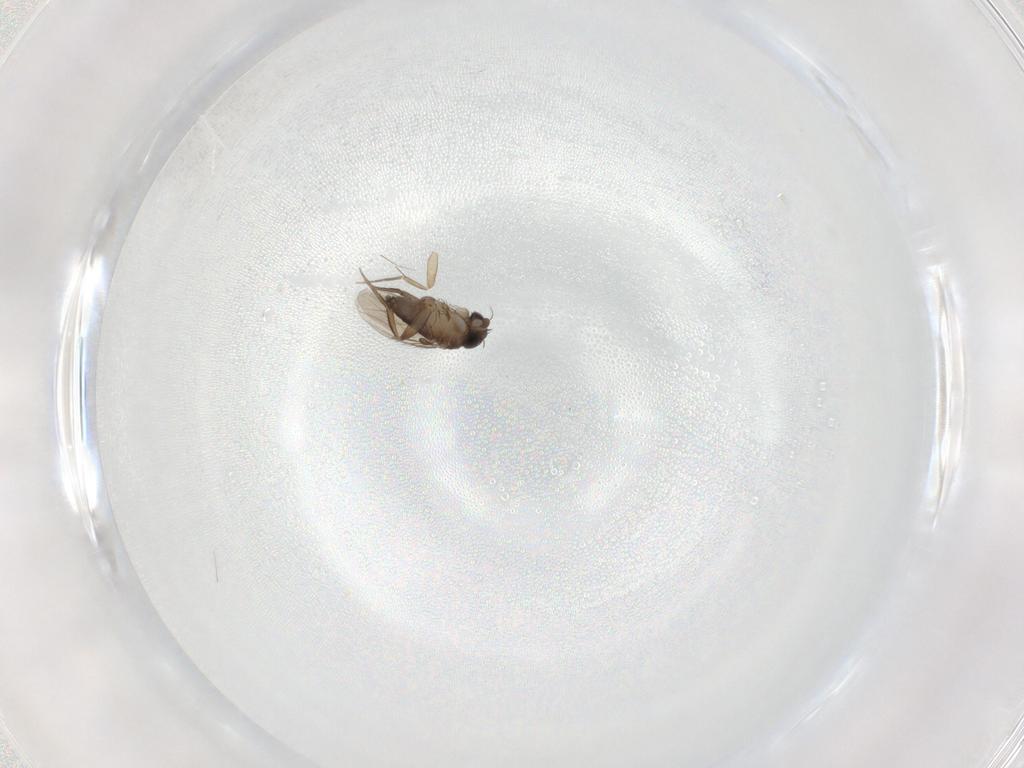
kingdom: Animalia
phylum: Arthropoda
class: Insecta
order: Diptera
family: Phoridae
